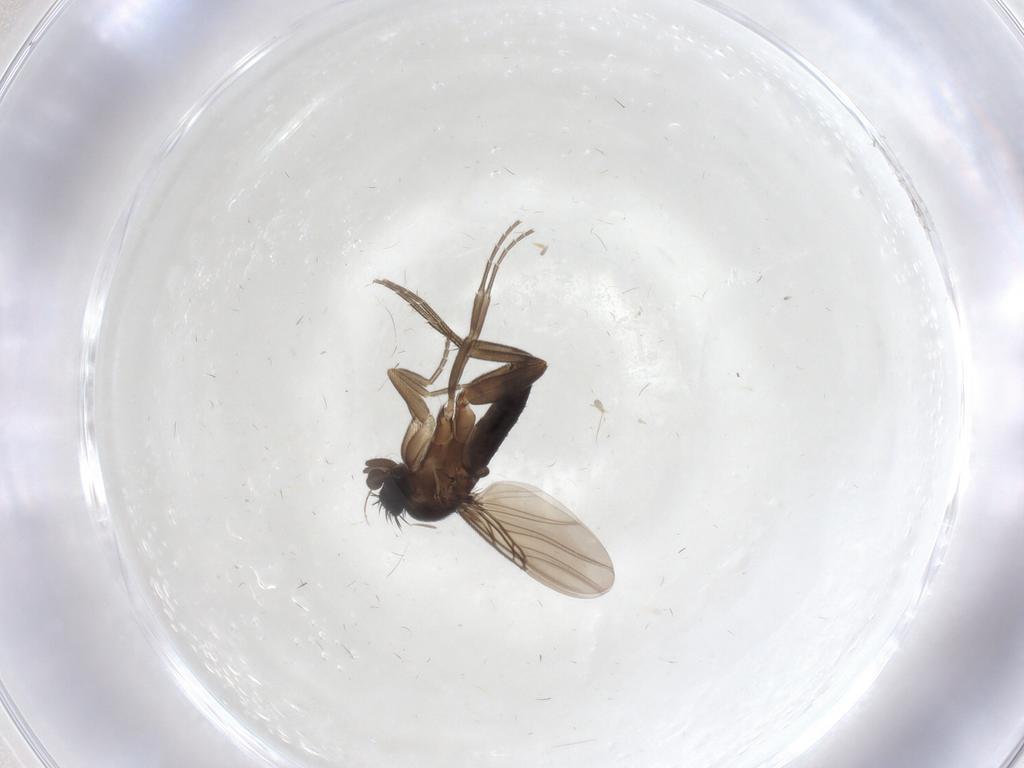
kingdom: Animalia
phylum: Arthropoda
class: Insecta
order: Diptera
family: Phoridae
